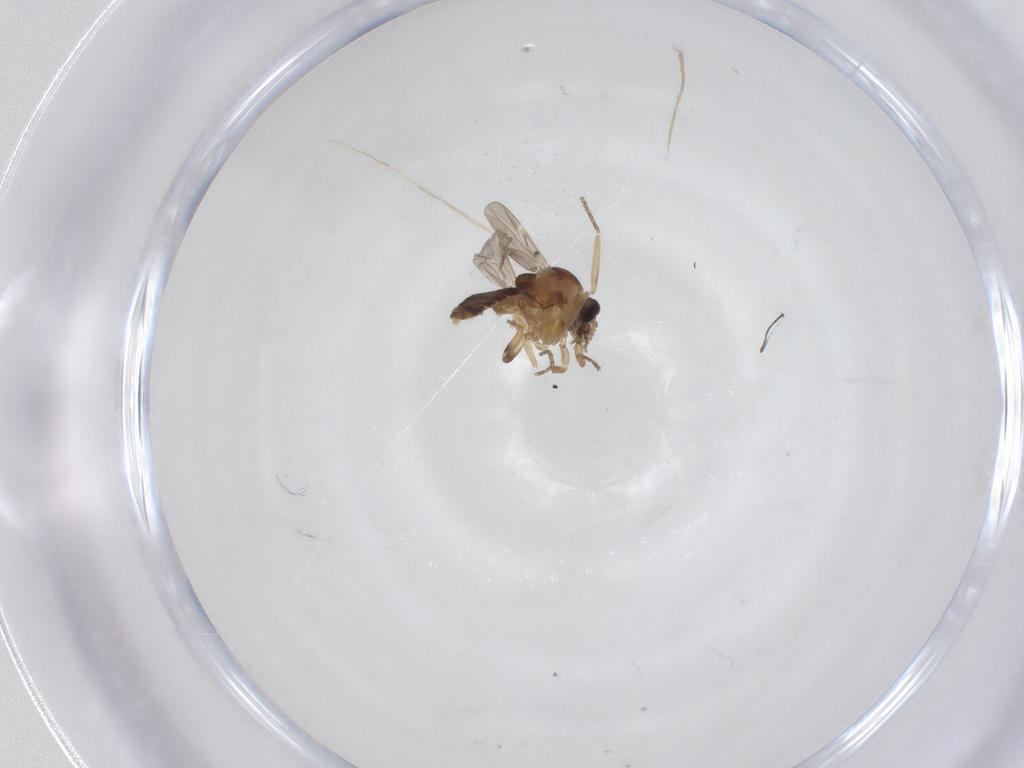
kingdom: Animalia
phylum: Arthropoda
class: Insecta
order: Diptera
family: Ceratopogonidae
